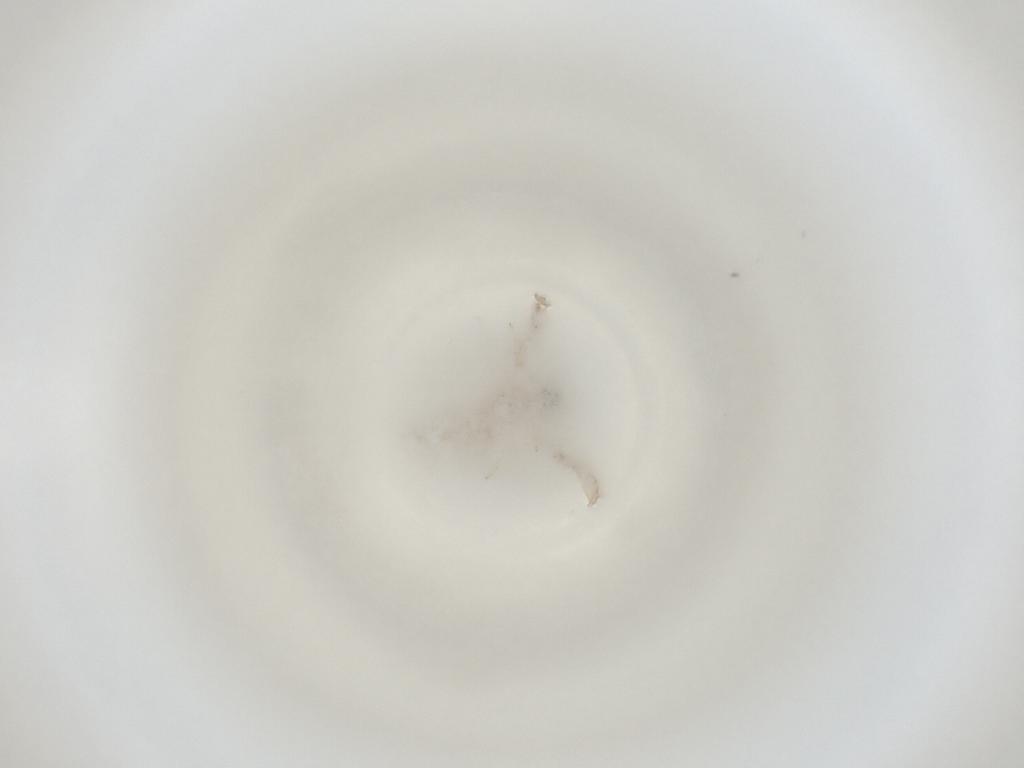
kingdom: Animalia
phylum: Arthropoda
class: Insecta
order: Diptera
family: Cecidomyiidae
